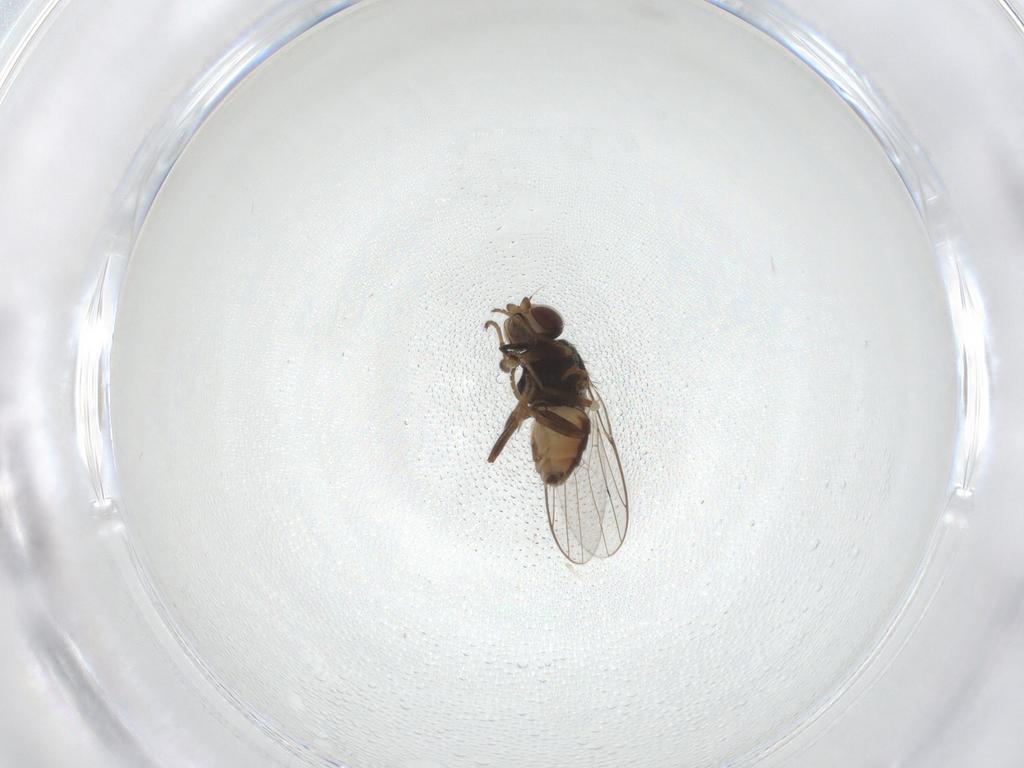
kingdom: Animalia
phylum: Arthropoda
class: Insecta
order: Diptera
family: Chloropidae
